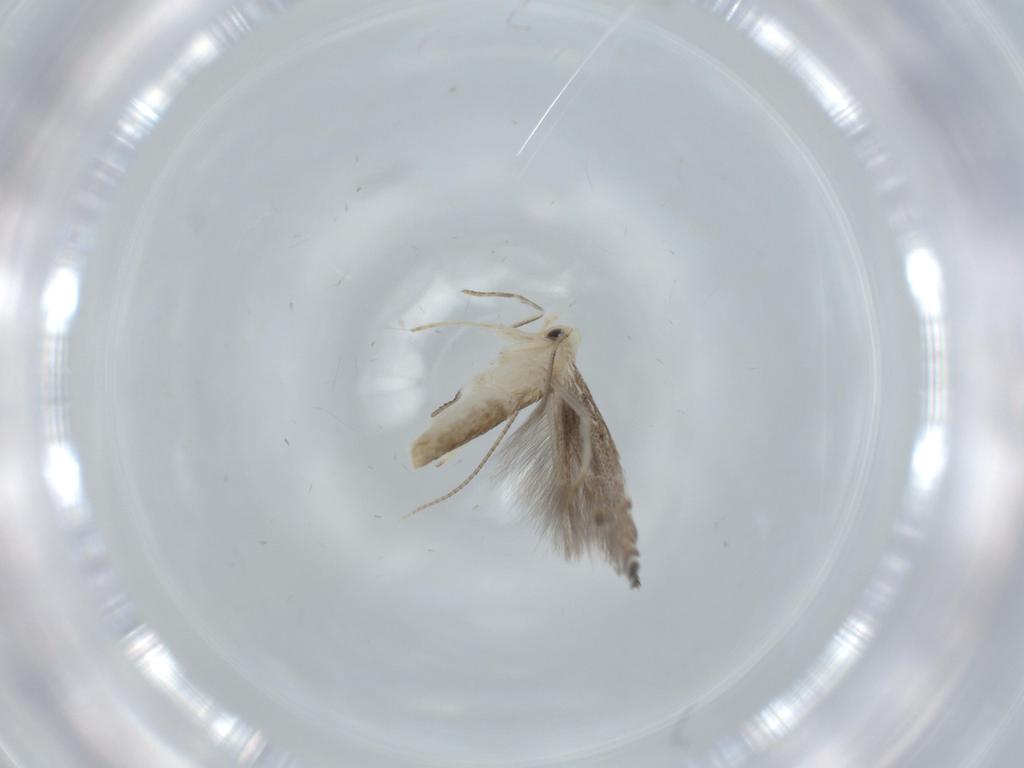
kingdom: Animalia
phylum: Arthropoda
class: Insecta
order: Lepidoptera
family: Gracillariidae
